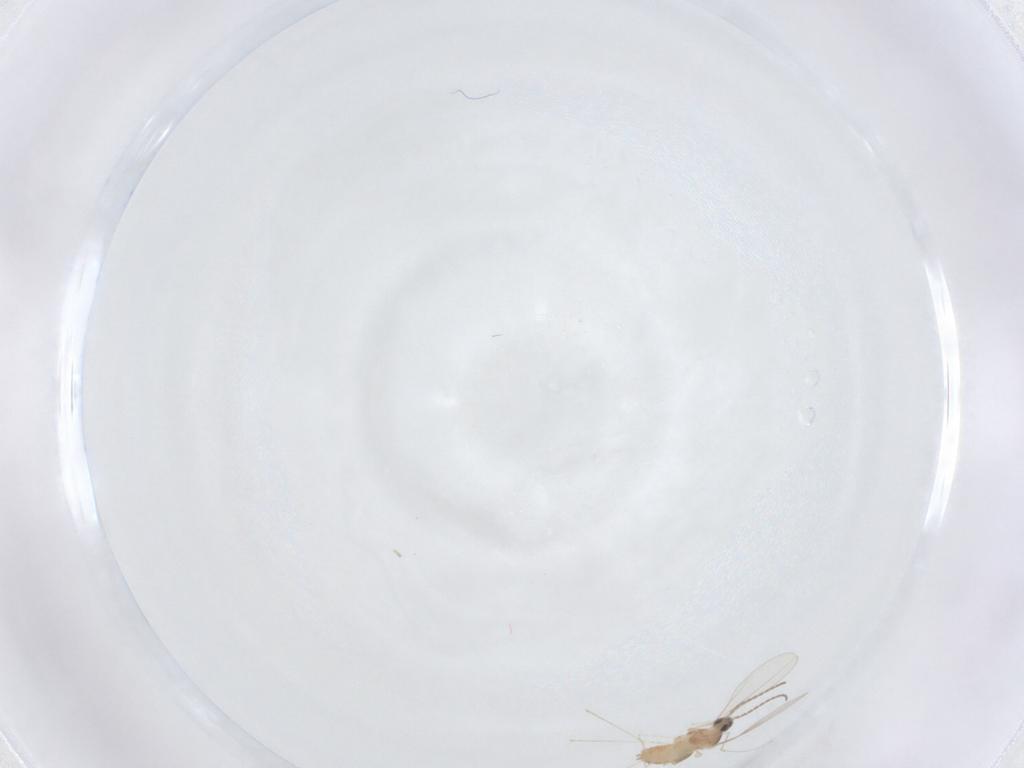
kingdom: Animalia
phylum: Arthropoda
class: Insecta
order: Diptera
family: Cecidomyiidae
